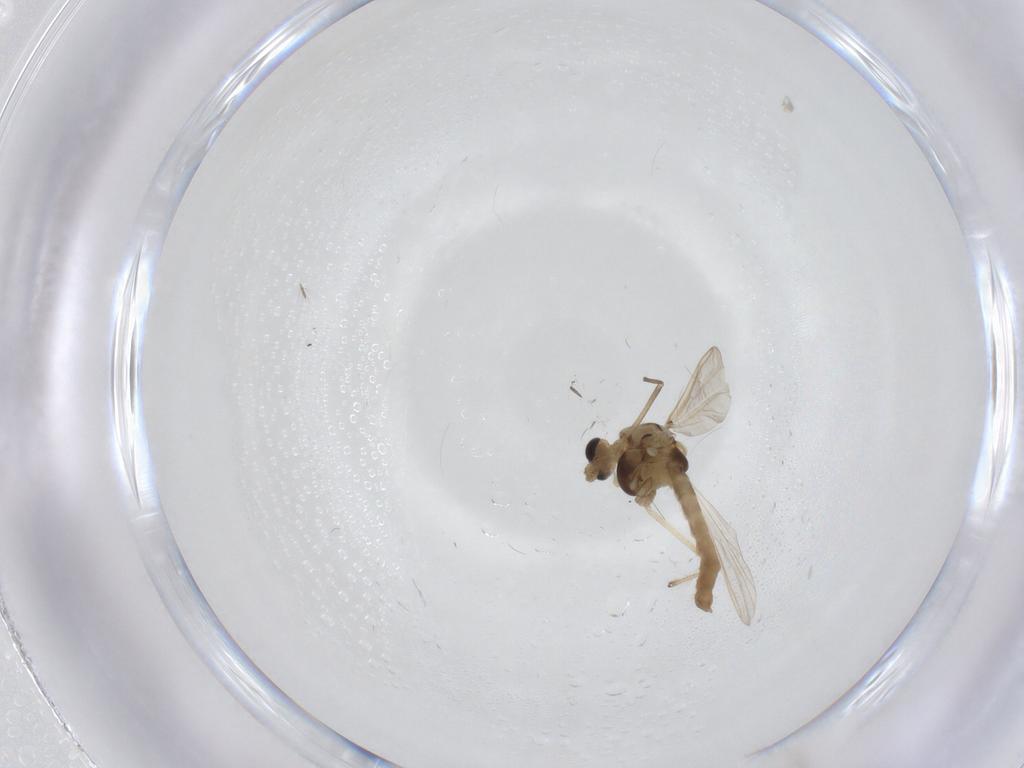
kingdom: Animalia
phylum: Arthropoda
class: Insecta
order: Diptera
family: Chironomidae
